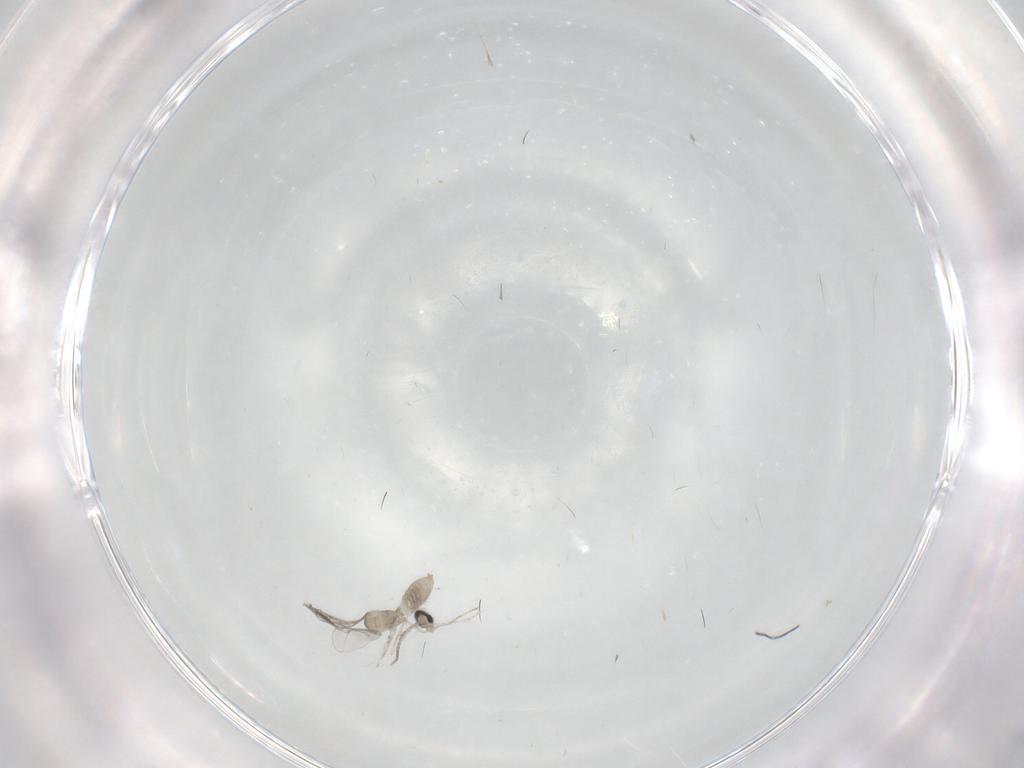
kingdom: Animalia
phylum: Arthropoda
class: Insecta
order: Diptera
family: Cecidomyiidae
